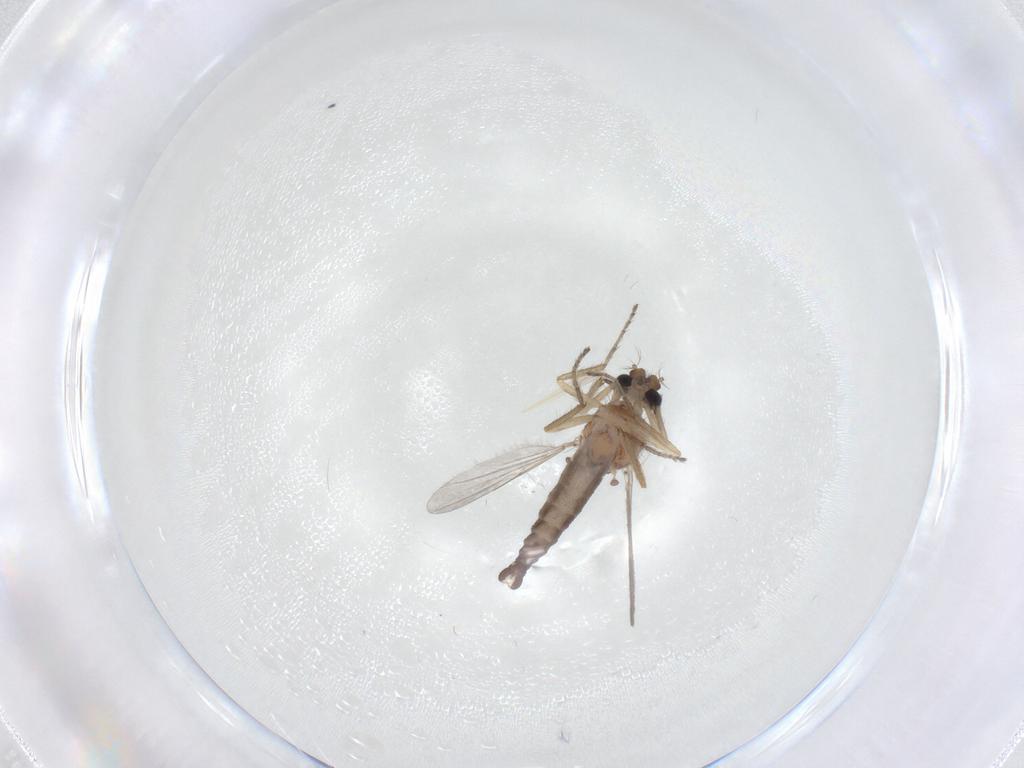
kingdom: Animalia
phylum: Arthropoda
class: Insecta
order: Diptera
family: Ceratopogonidae
